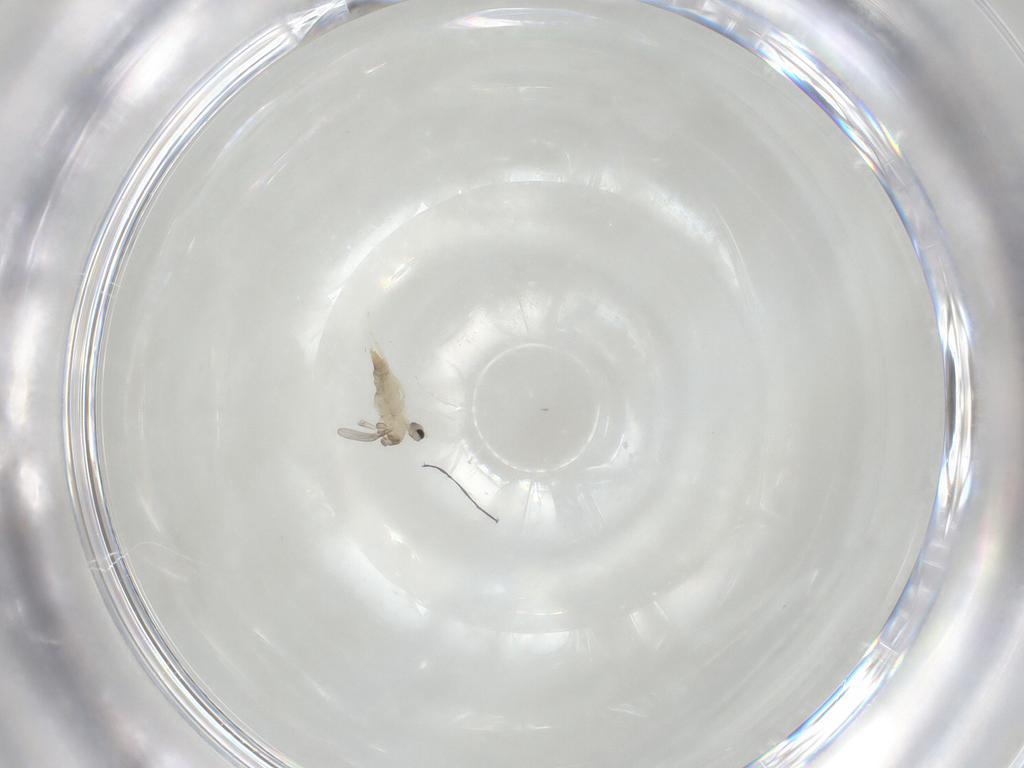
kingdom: Animalia
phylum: Arthropoda
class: Insecta
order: Diptera
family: Cecidomyiidae
